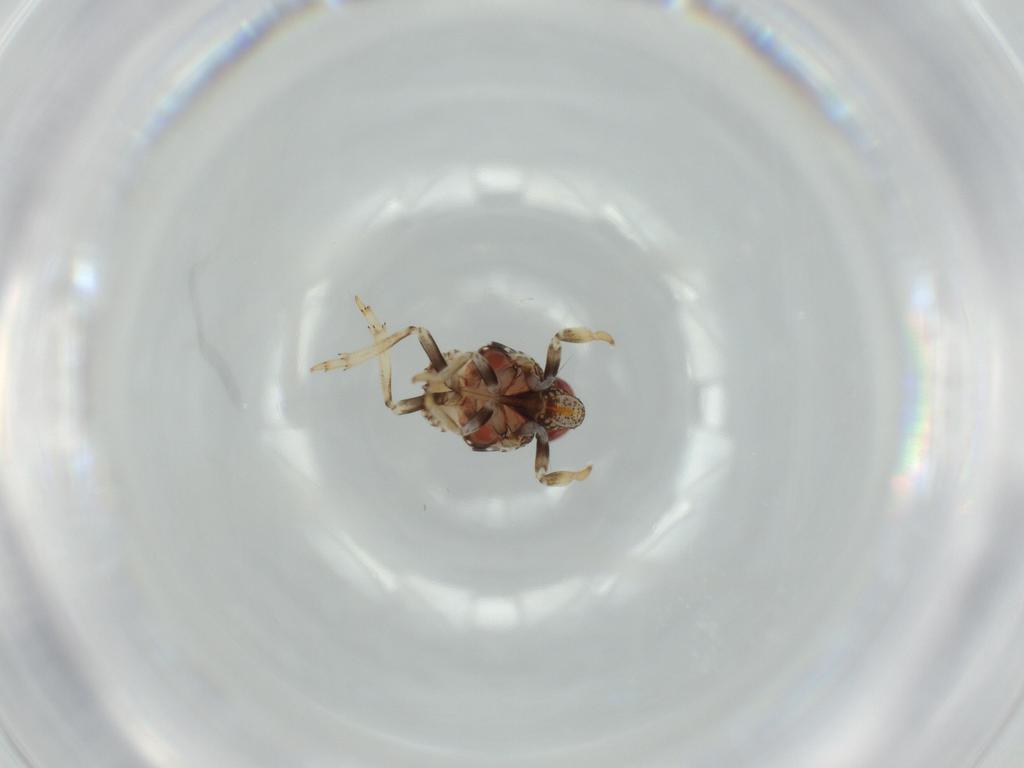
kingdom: Animalia
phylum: Arthropoda
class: Insecta
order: Hemiptera
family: Issidae
